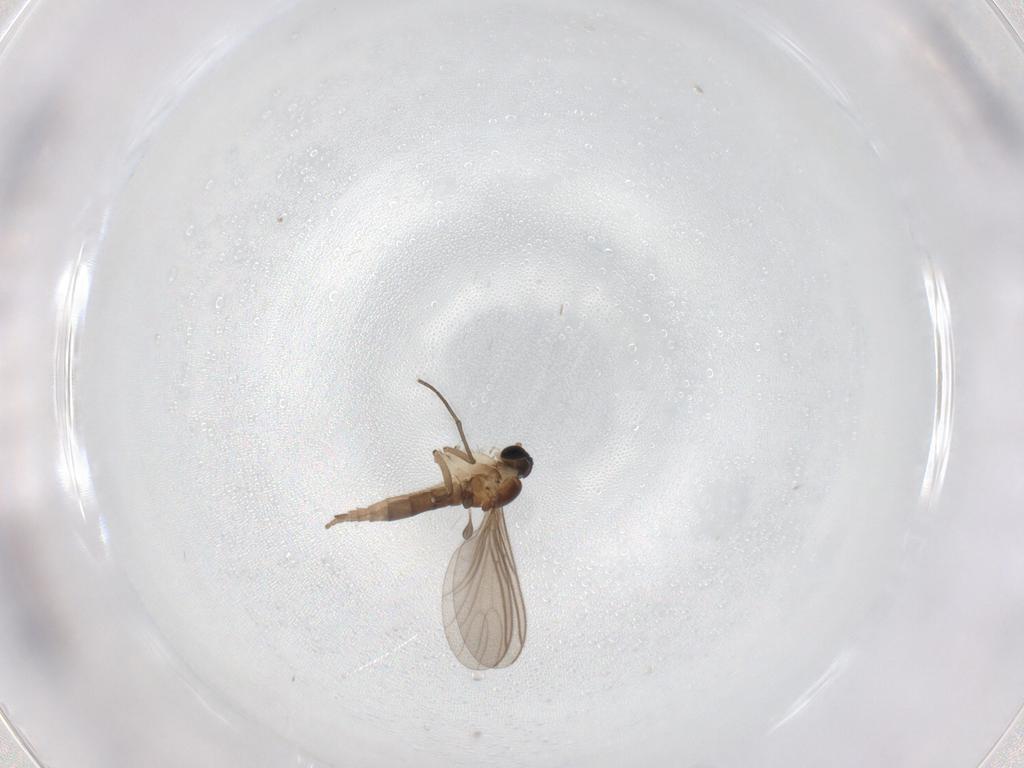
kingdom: Animalia
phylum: Arthropoda
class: Insecta
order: Diptera
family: Sciaridae
